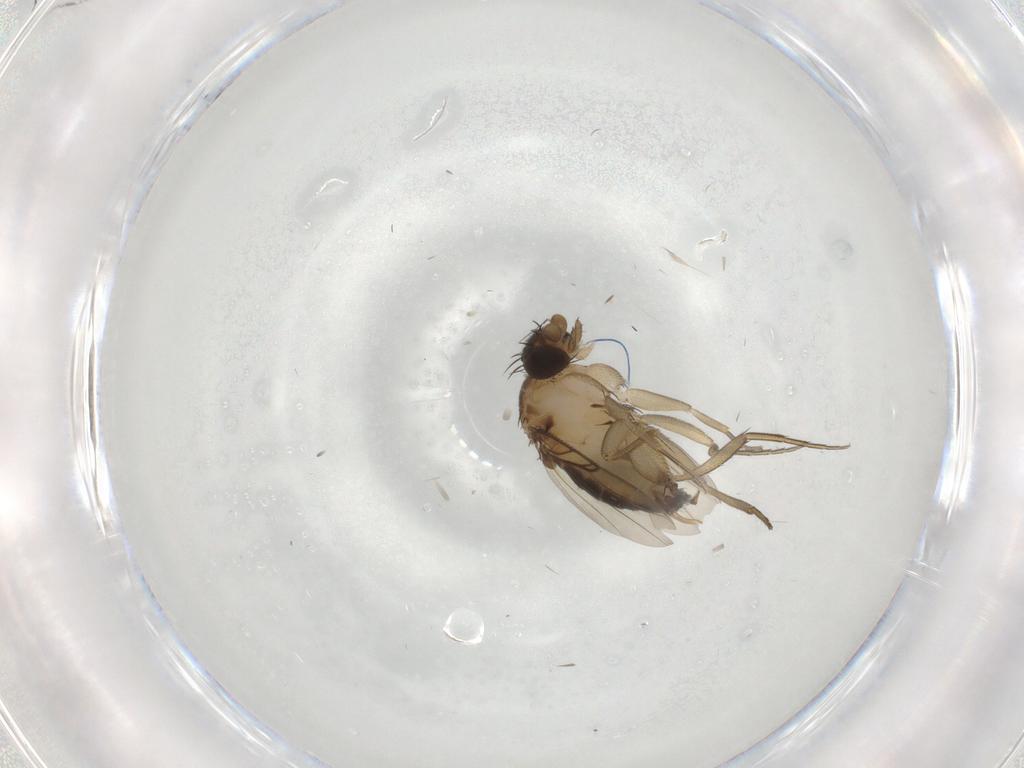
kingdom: Animalia
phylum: Arthropoda
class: Insecta
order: Diptera
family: Phoridae
